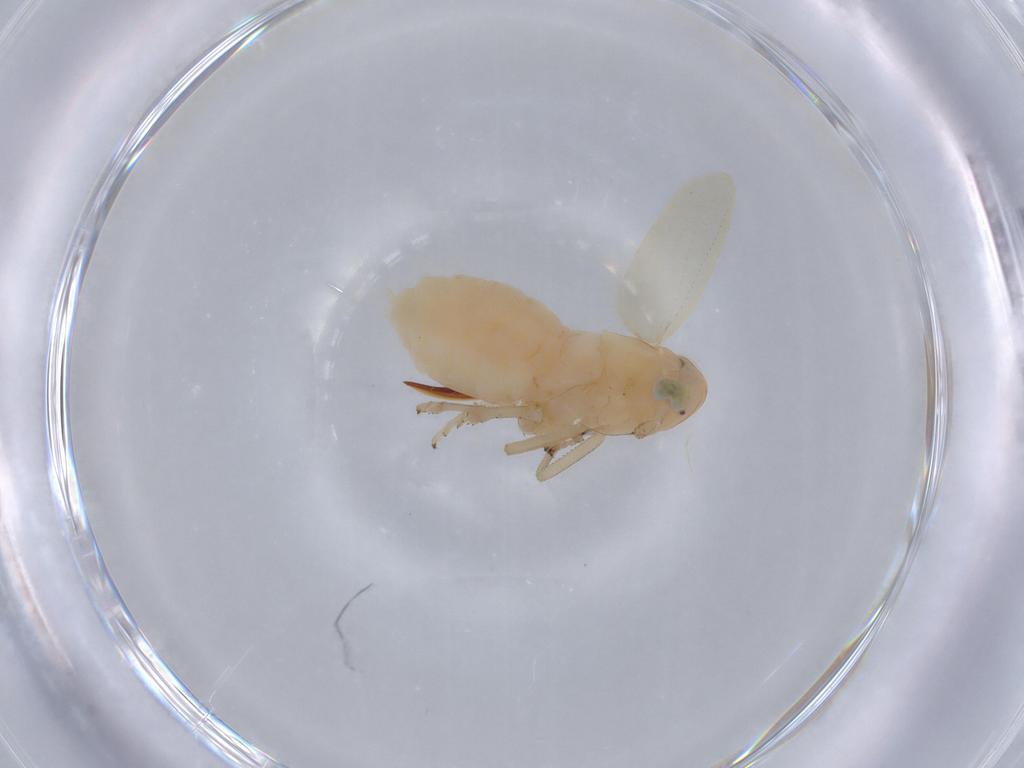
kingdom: Animalia
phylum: Arthropoda
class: Insecta
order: Hemiptera
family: Delphacidae
